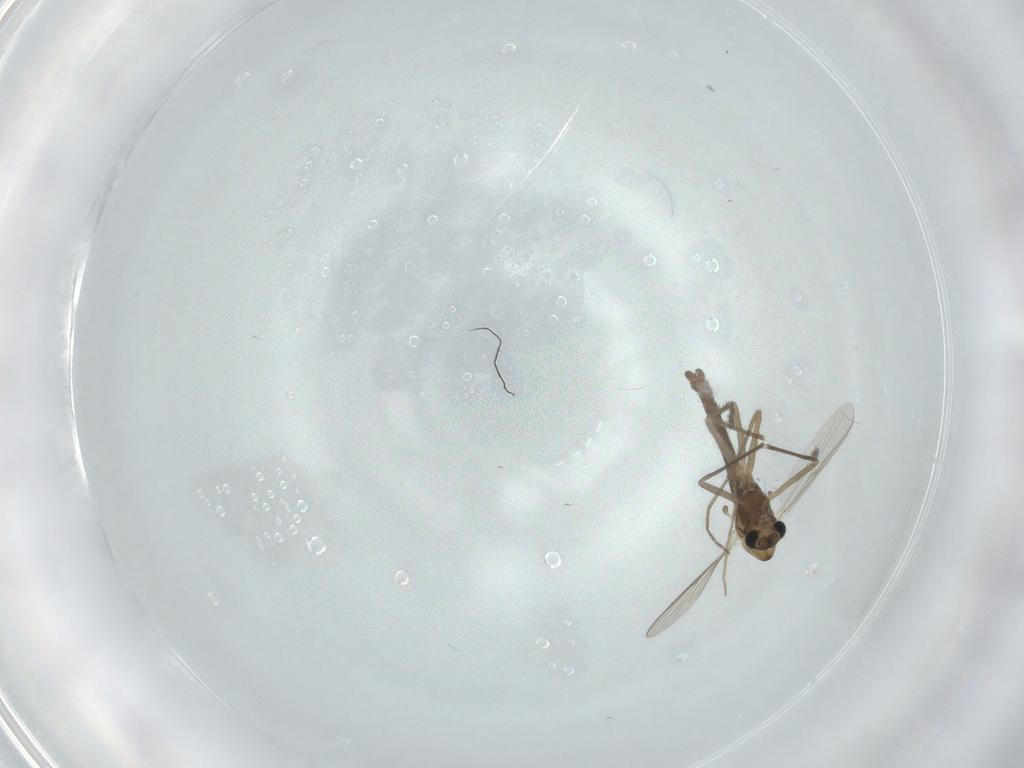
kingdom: Animalia
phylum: Arthropoda
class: Insecta
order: Diptera
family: Chironomidae
